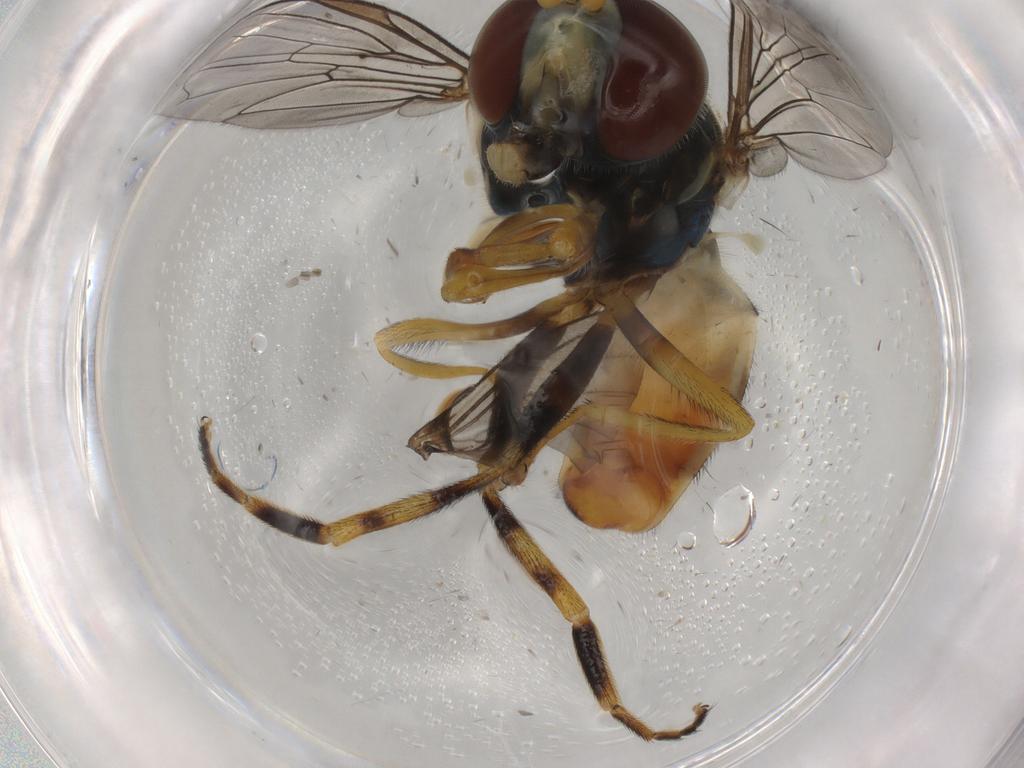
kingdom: Animalia
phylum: Arthropoda
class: Insecta
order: Diptera
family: Syrphidae
